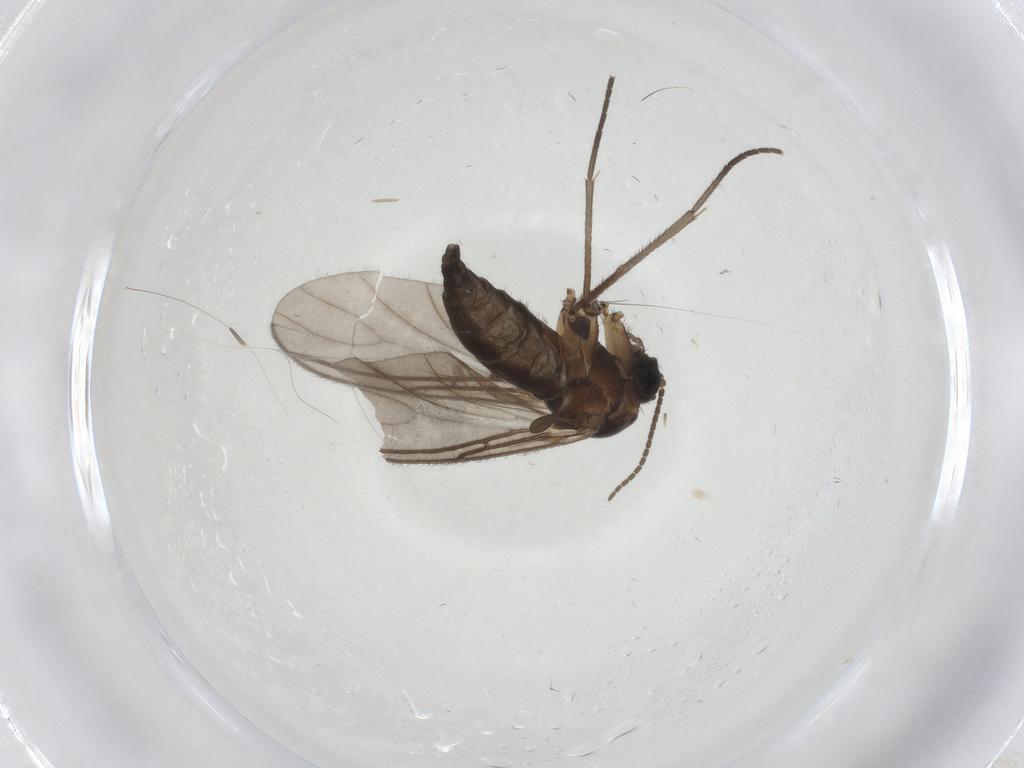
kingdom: Animalia
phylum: Arthropoda
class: Insecta
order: Diptera
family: Sciaridae
